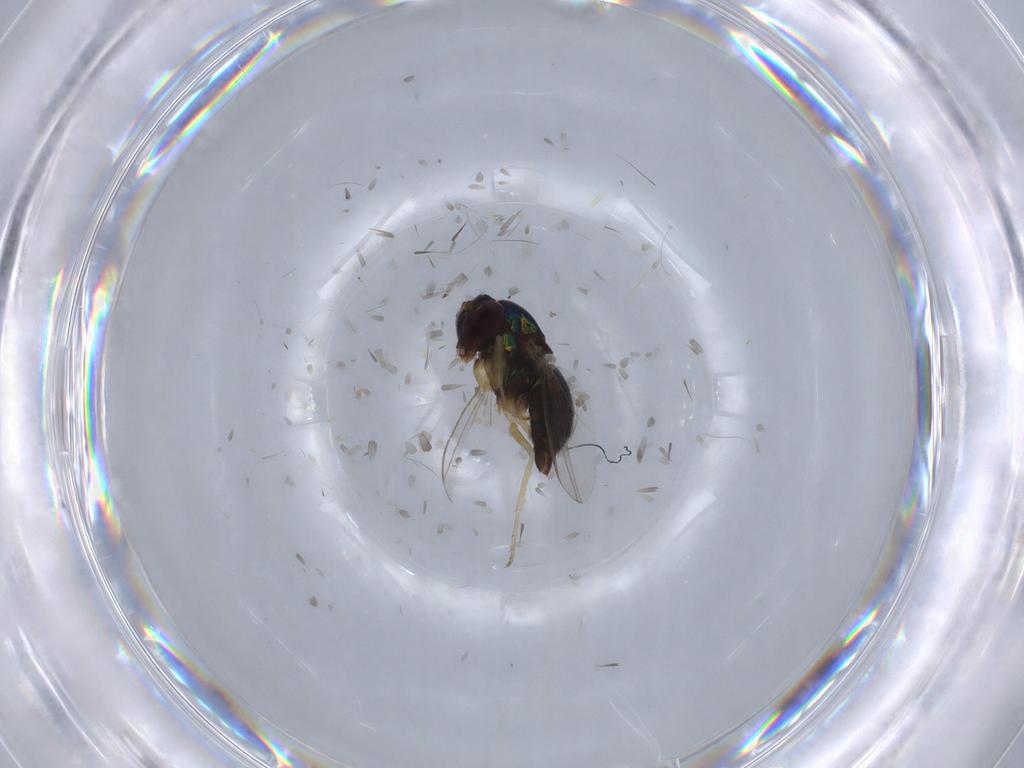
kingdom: Animalia
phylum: Arthropoda
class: Insecta
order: Diptera
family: Dolichopodidae
